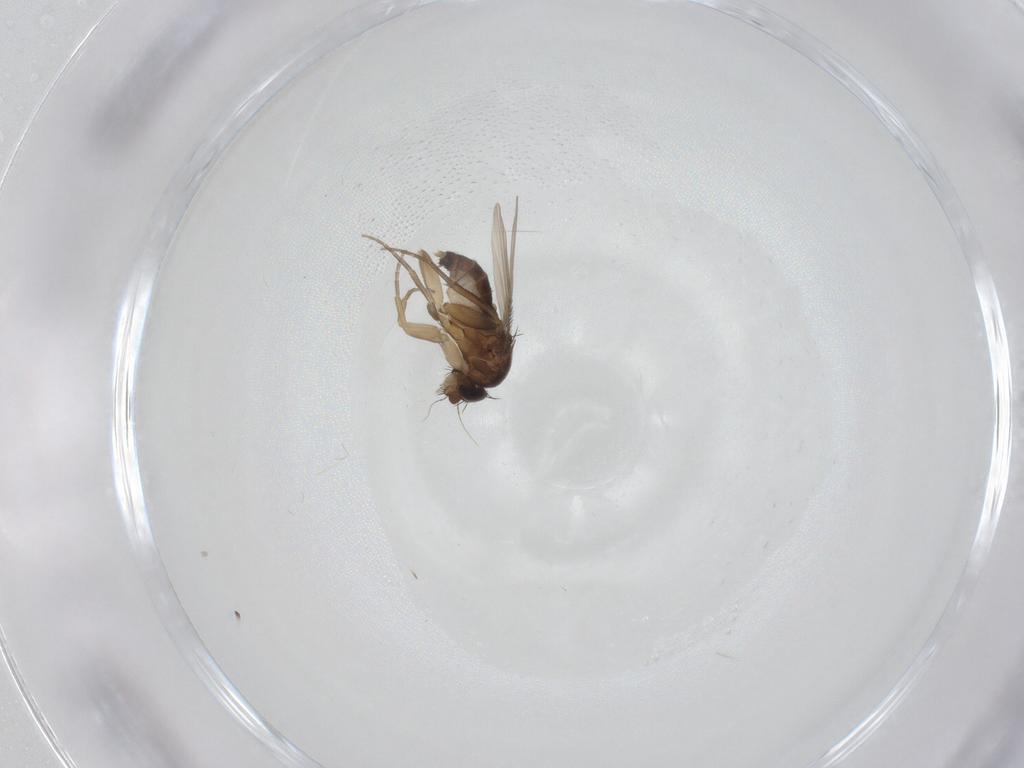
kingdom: Animalia
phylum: Arthropoda
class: Insecta
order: Diptera
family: Phoridae
